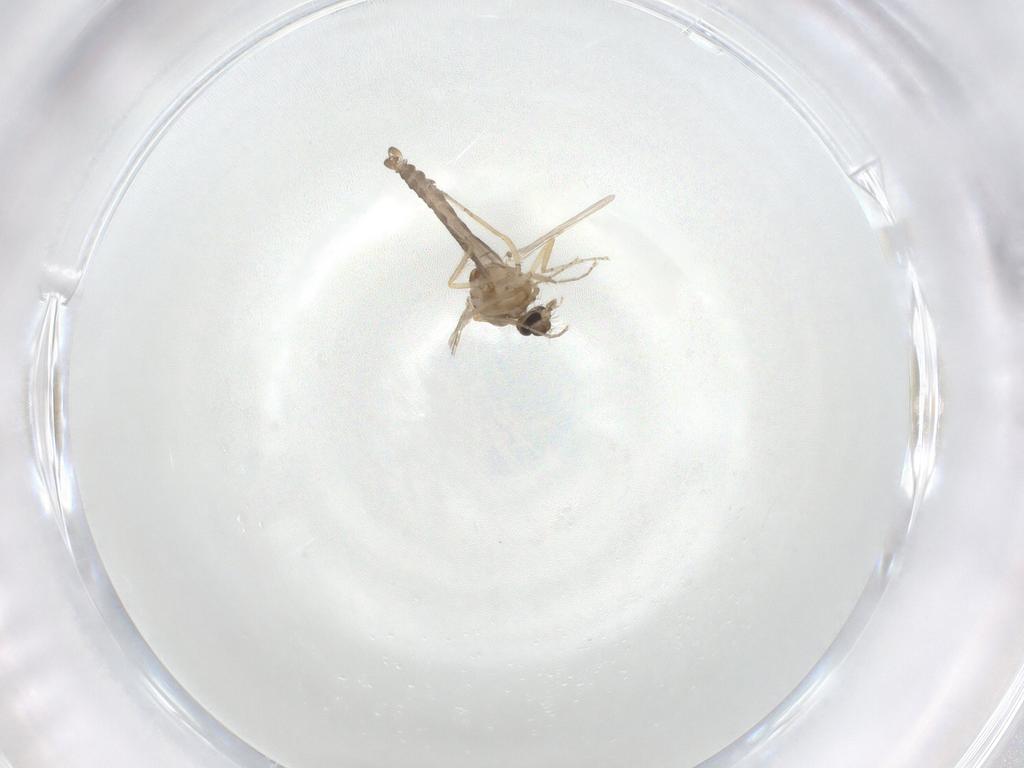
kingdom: Animalia
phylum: Arthropoda
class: Insecta
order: Diptera
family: Ceratopogonidae
